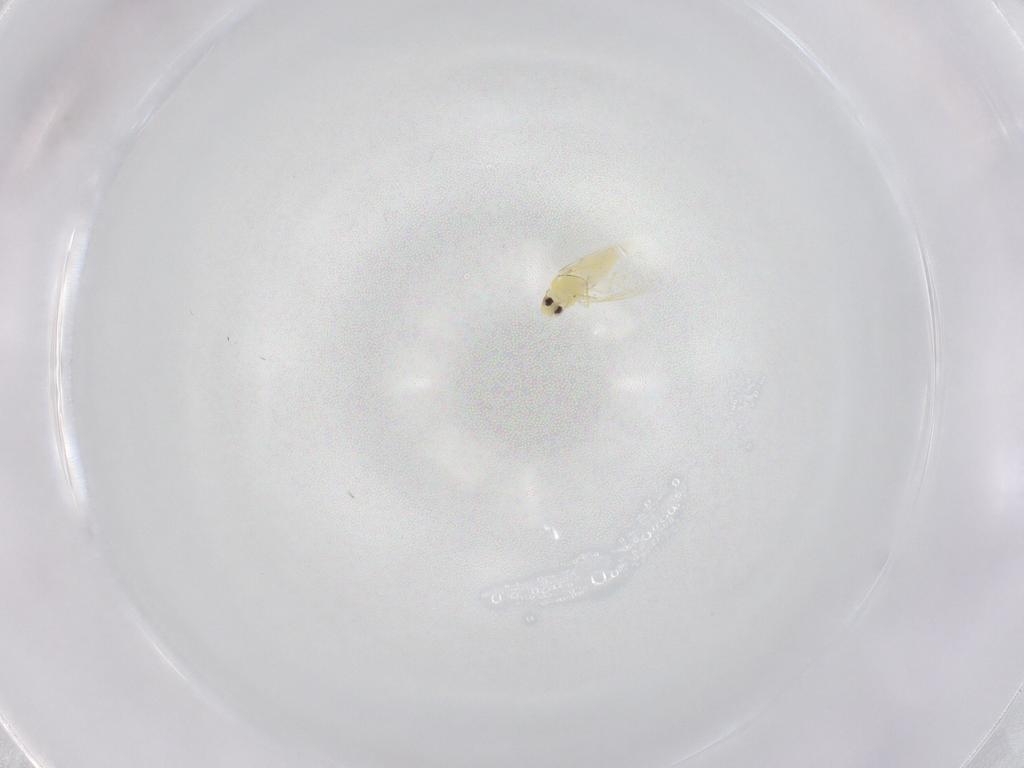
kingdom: Animalia
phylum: Arthropoda
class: Insecta
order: Hemiptera
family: Aleyrodidae
